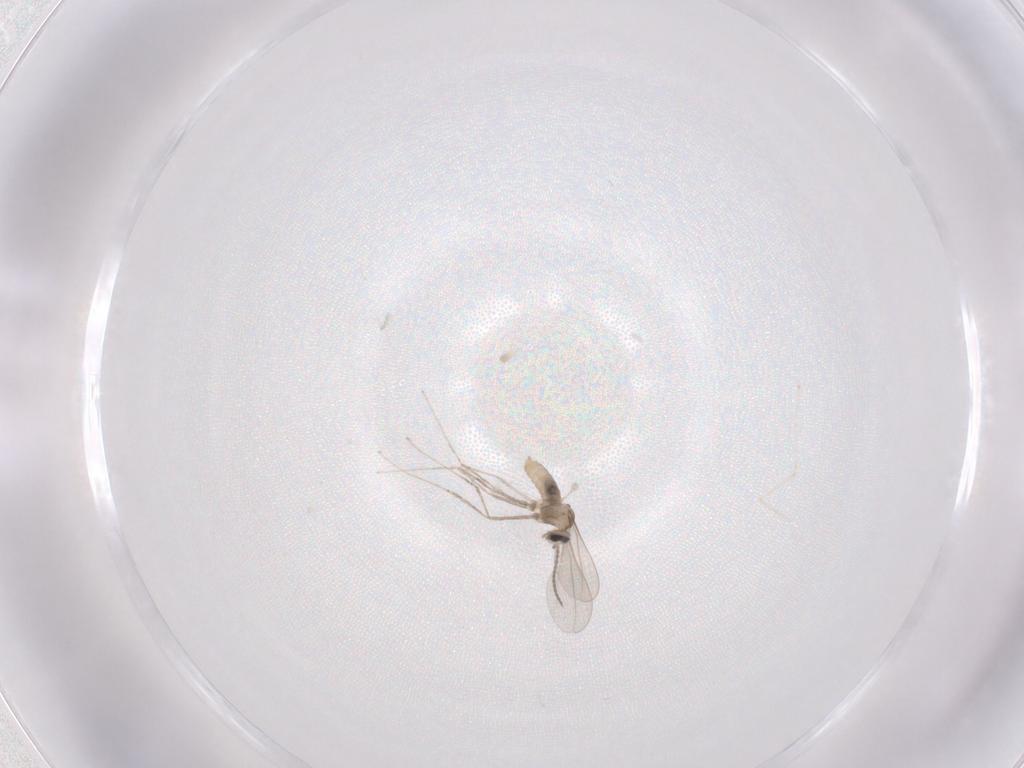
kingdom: Animalia
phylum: Arthropoda
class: Insecta
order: Diptera
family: Cecidomyiidae
